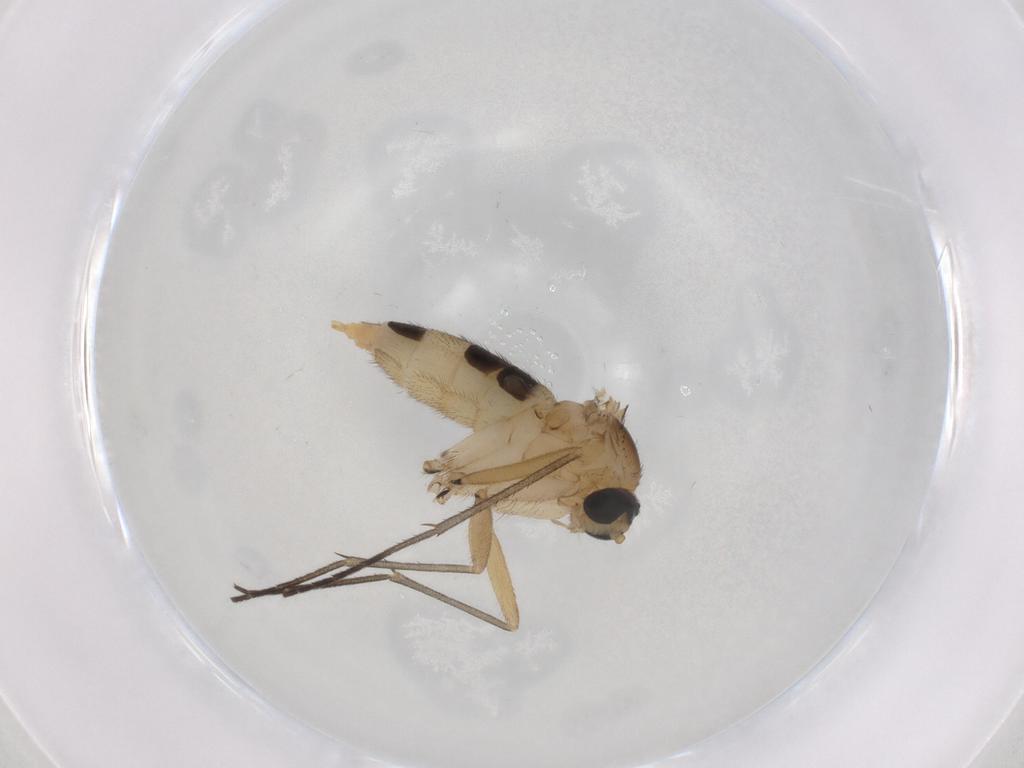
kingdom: Animalia
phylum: Arthropoda
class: Insecta
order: Diptera
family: Sciaridae
